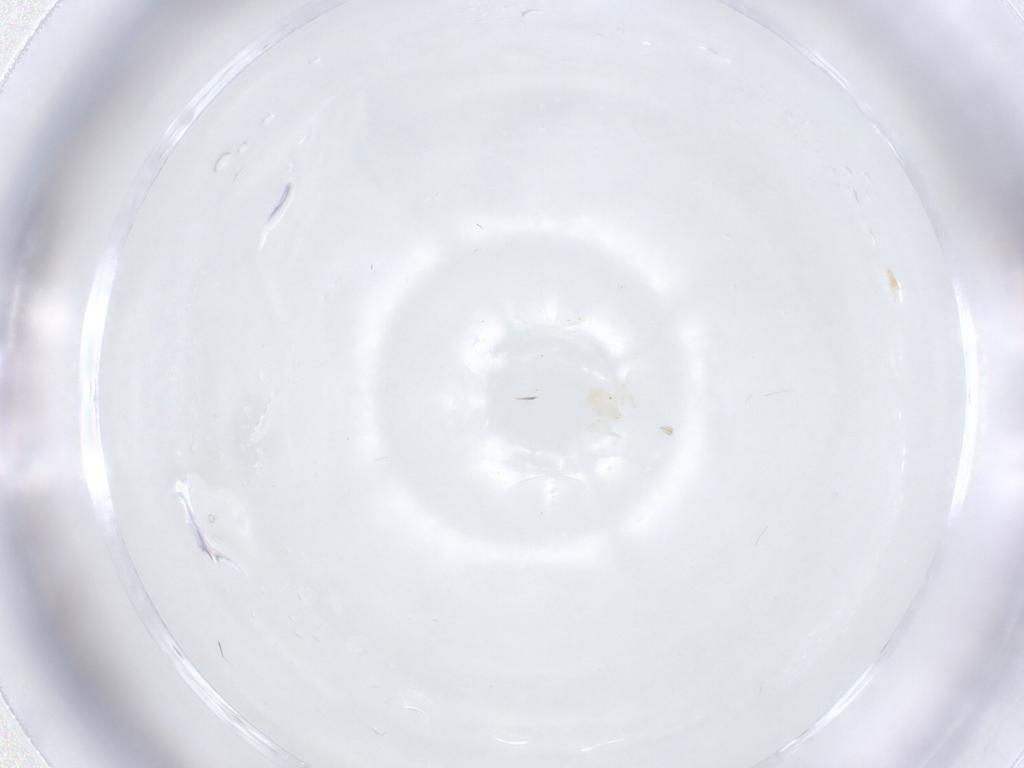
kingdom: Animalia
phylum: Arthropoda
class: Arachnida
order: Trombidiformes
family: Anystidae
